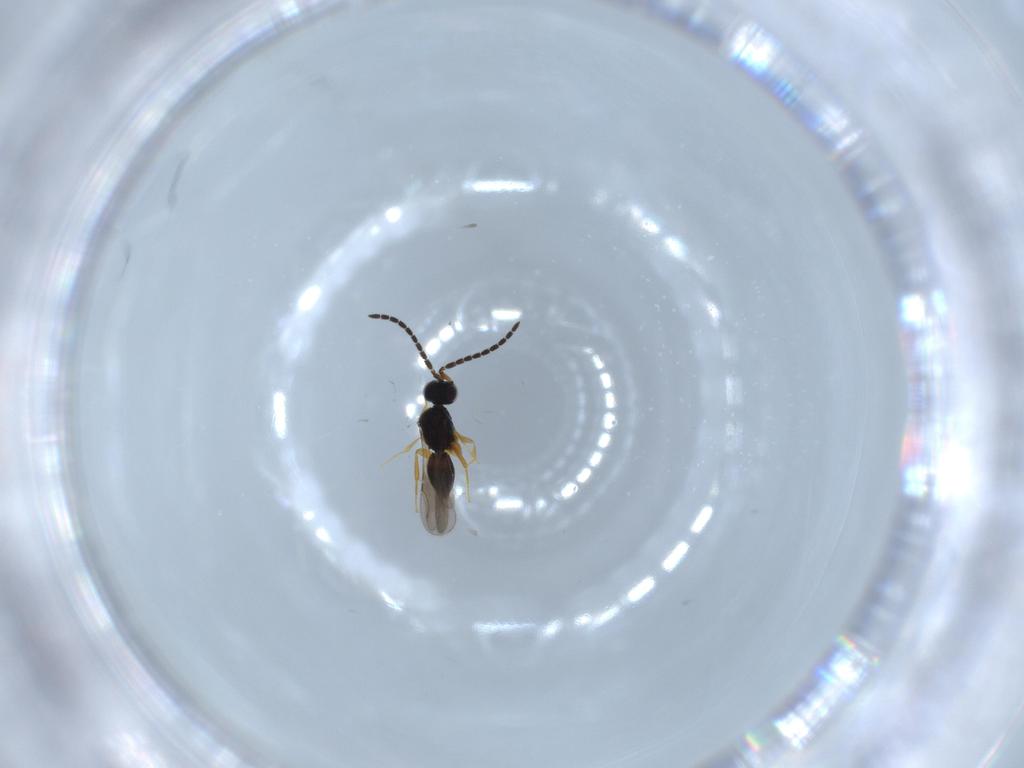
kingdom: Animalia
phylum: Arthropoda
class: Insecta
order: Hymenoptera
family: Ceraphronidae
